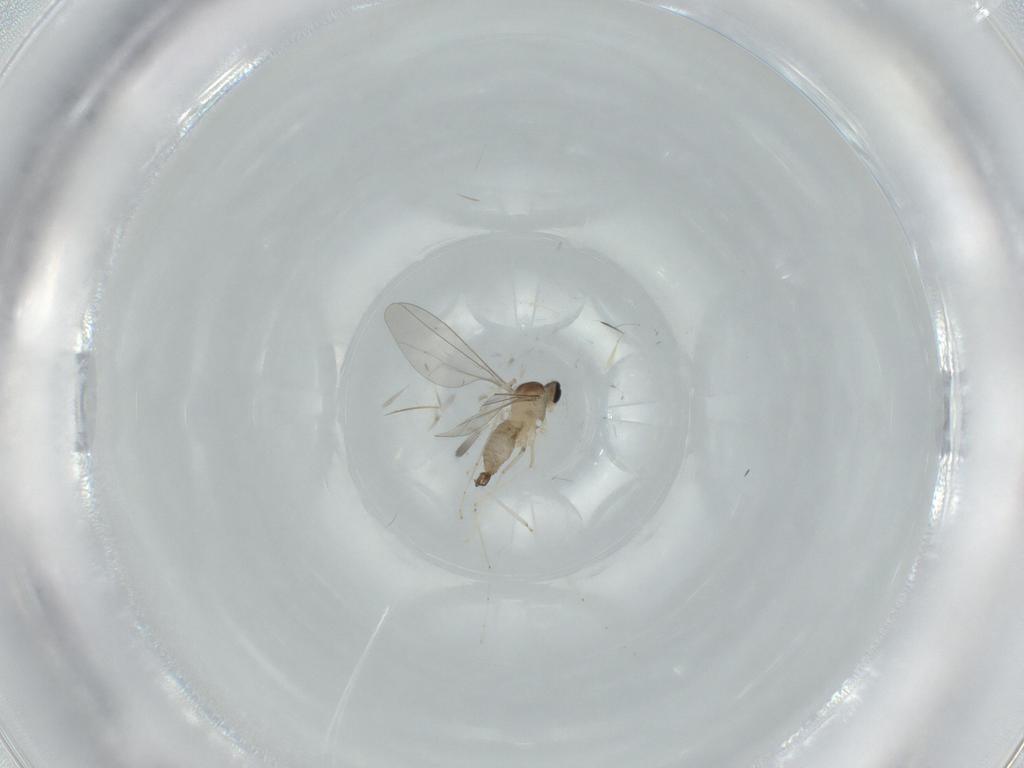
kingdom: Animalia
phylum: Arthropoda
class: Insecta
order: Diptera
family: Cecidomyiidae
